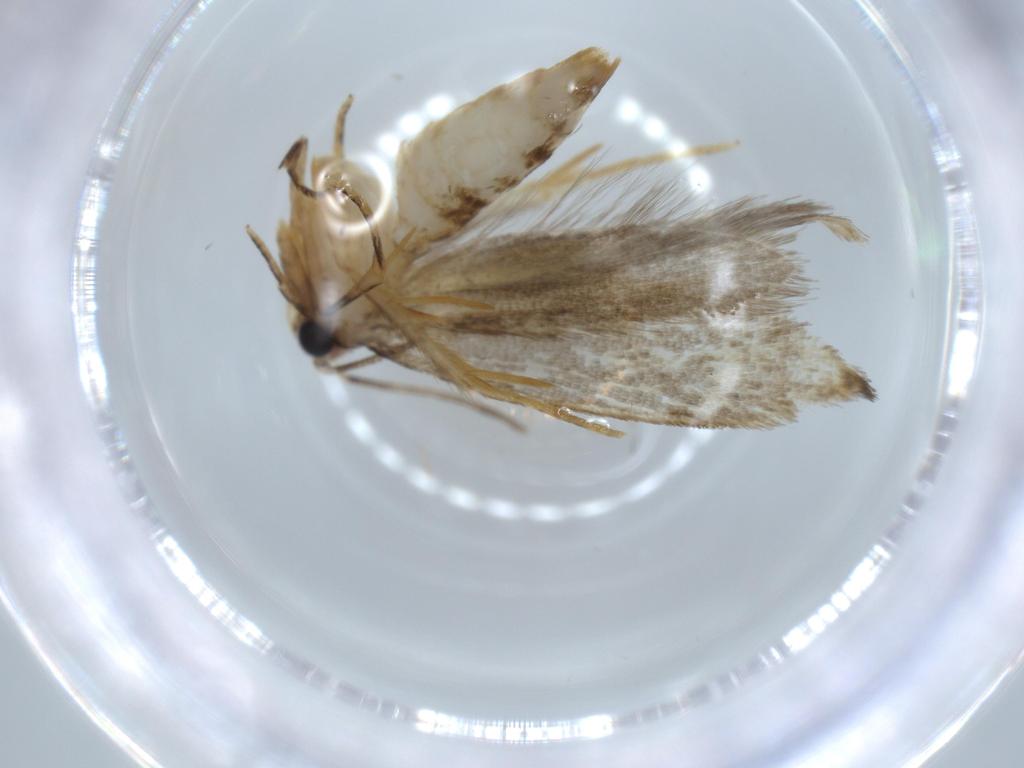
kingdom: Animalia
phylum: Arthropoda
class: Insecta
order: Lepidoptera
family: Tineidae
